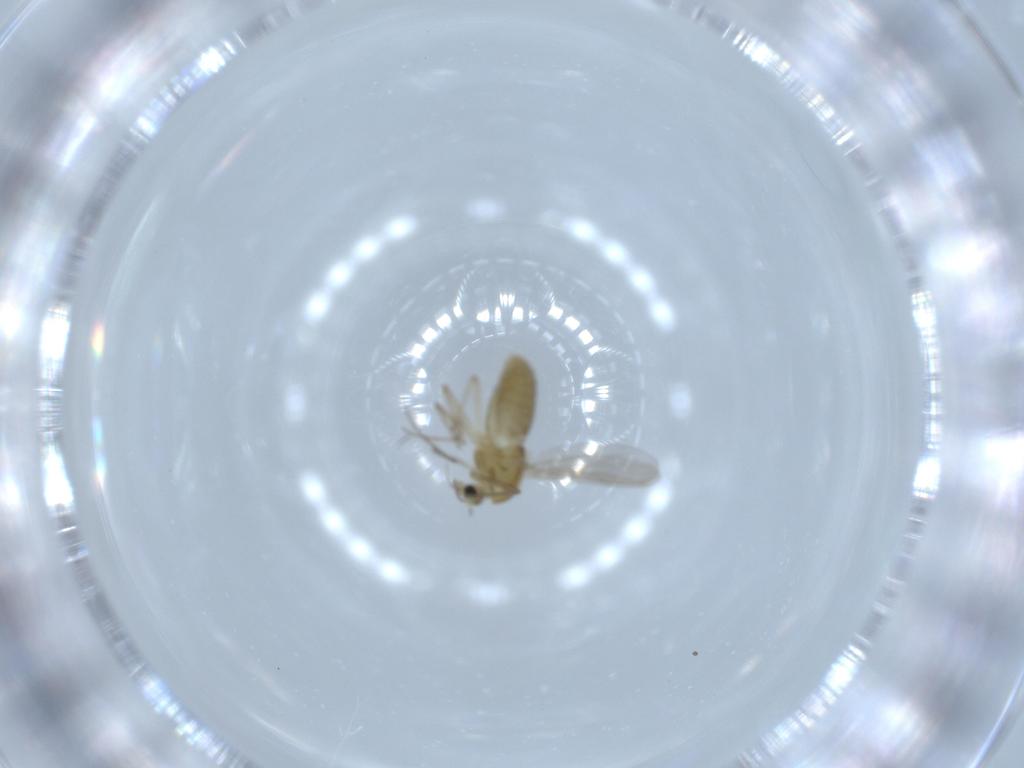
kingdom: Animalia
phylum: Arthropoda
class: Insecta
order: Diptera
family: Chironomidae
